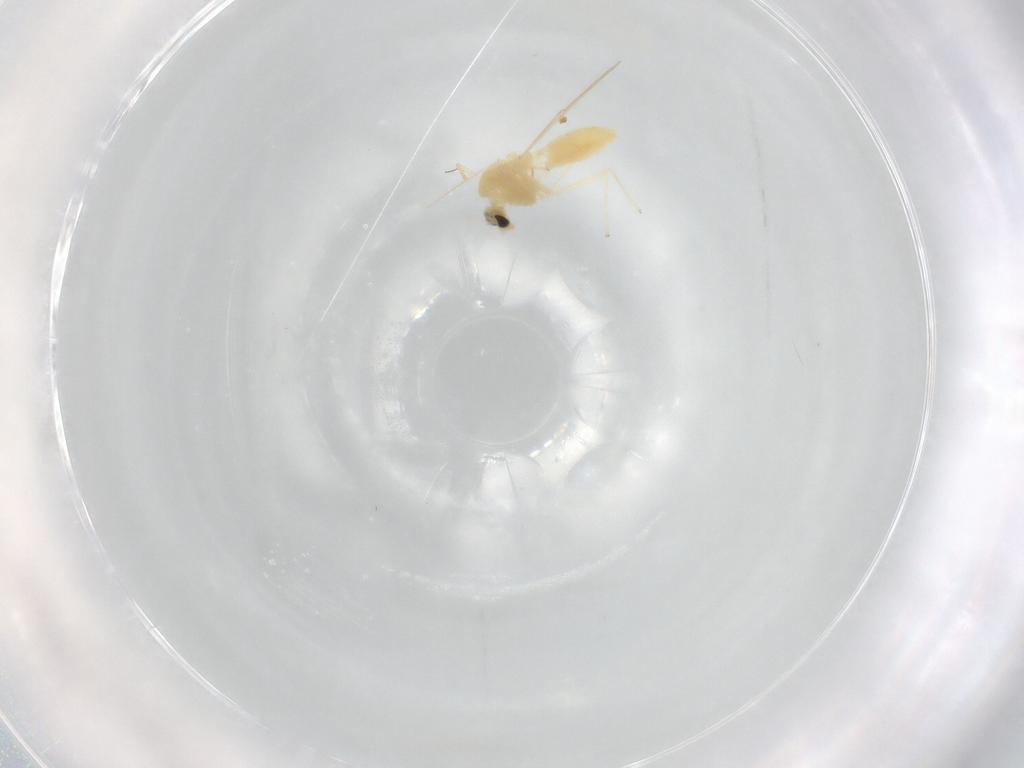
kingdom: Animalia
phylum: Arthropoda
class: Insecta
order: Diptera
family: Chironomidae
